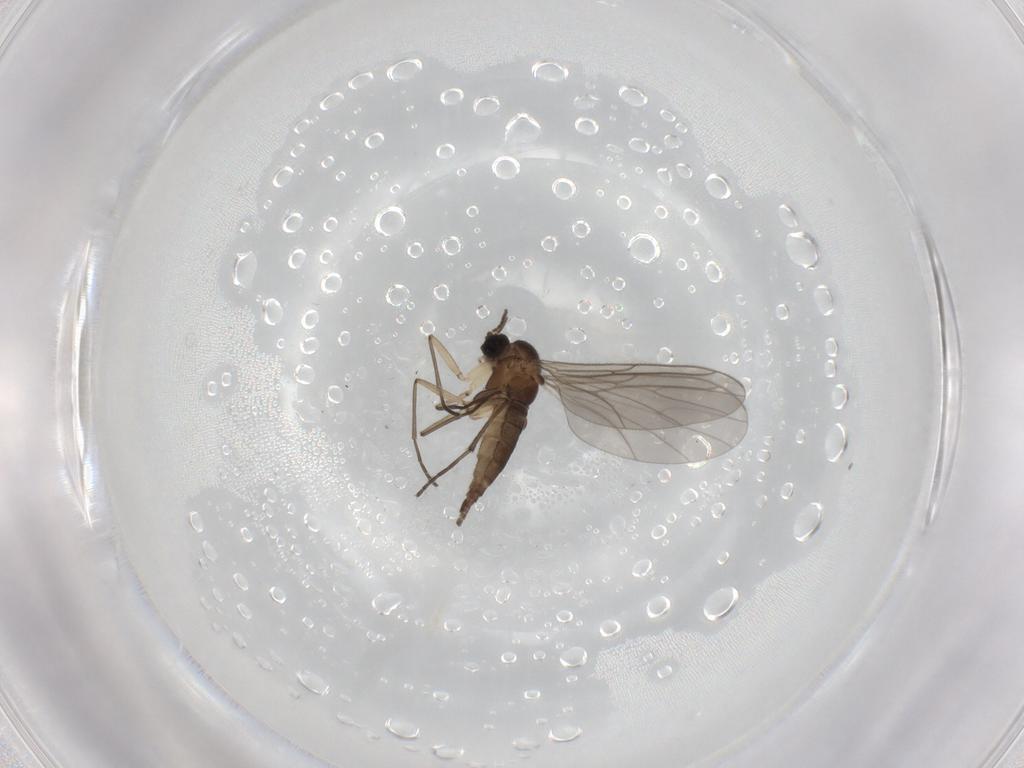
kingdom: Animalia
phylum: Arthropoda
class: Insecta
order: Diptera
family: Sciaridae
